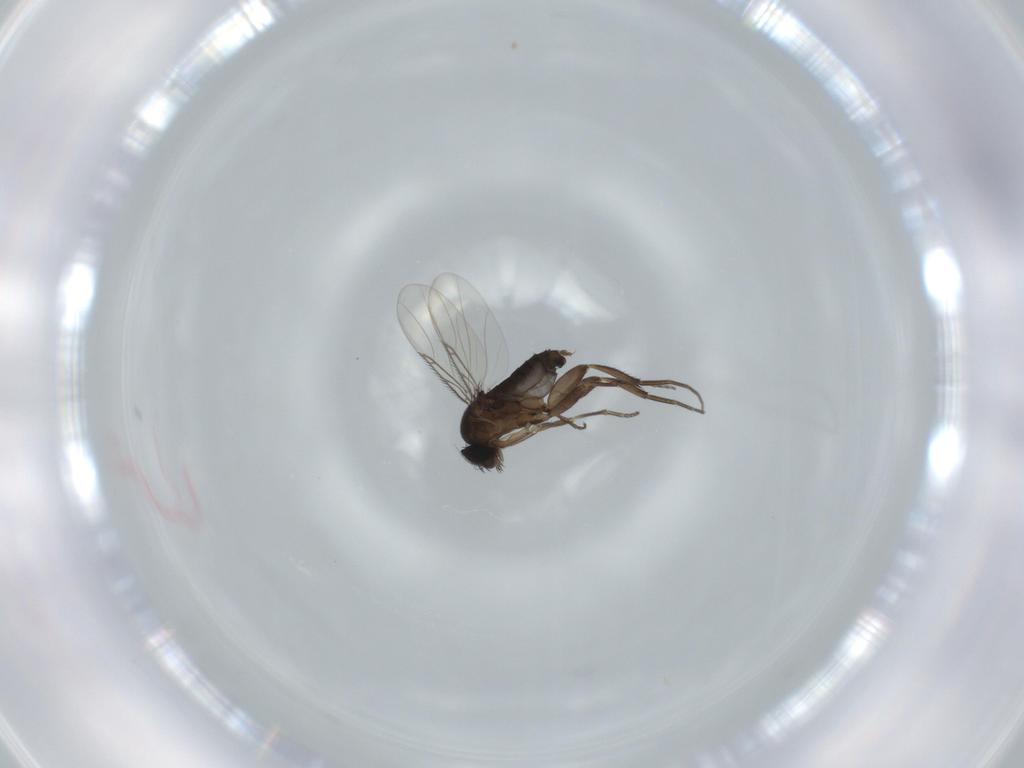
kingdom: Animalia
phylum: Arthropoda
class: Insecta
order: Diptera
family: Phoridae
